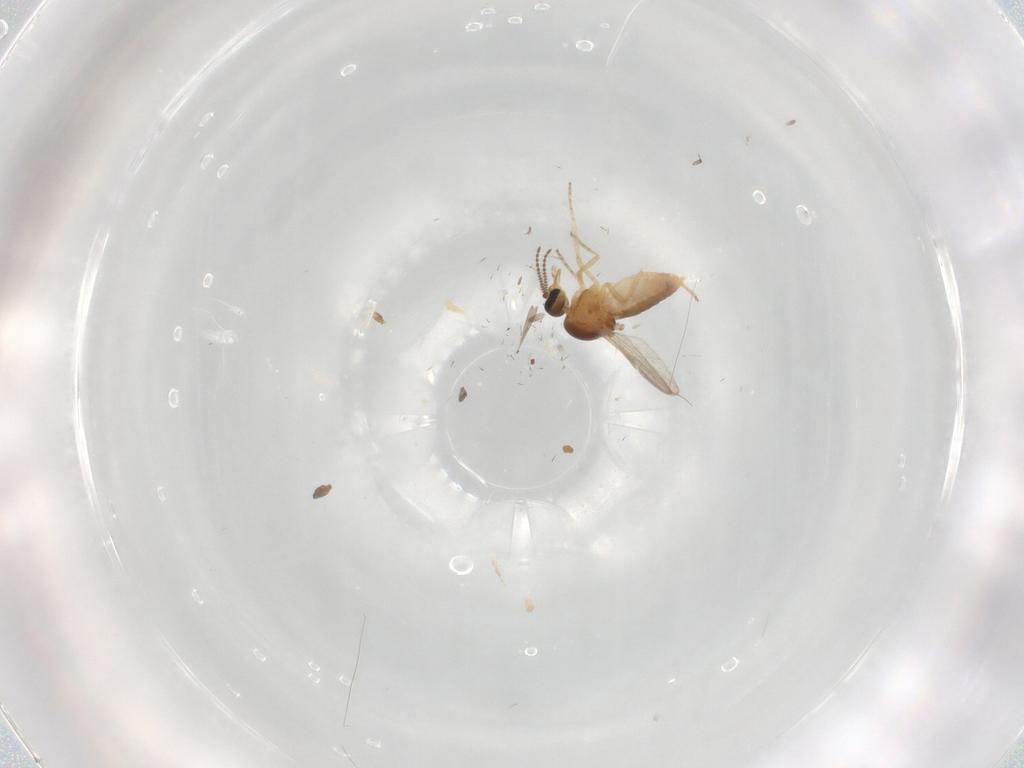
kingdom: Animalia
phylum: Arthropoda
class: Insecta
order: Diptera
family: Ceratopogonidae
